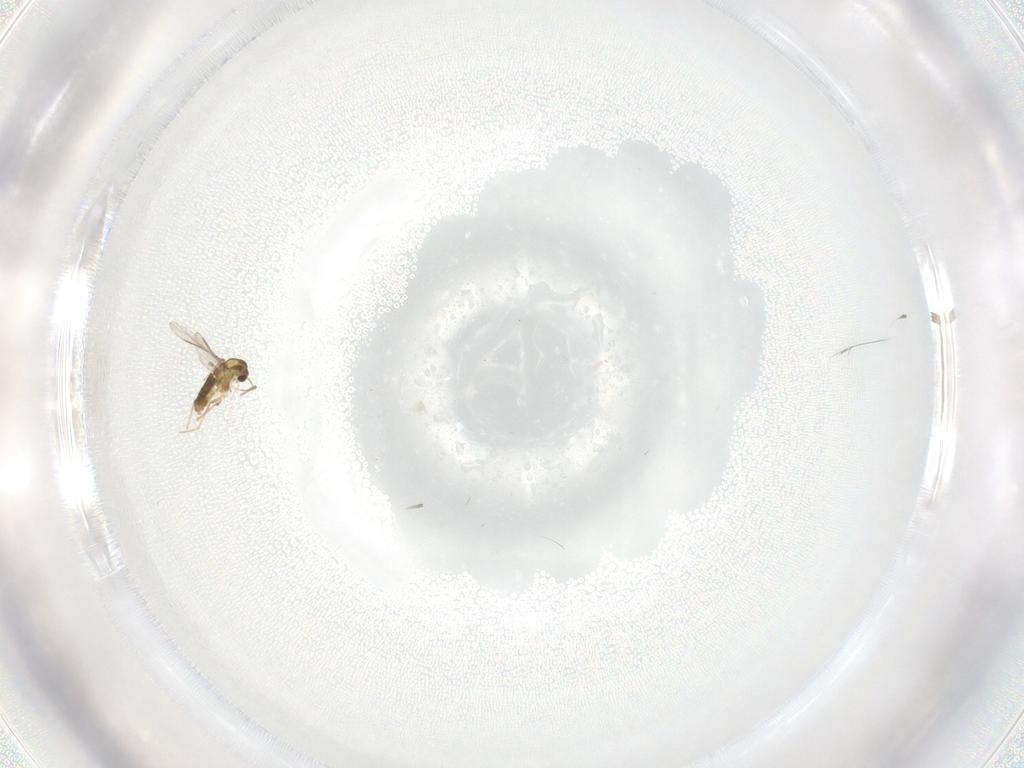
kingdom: Animalia
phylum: Arthropoda
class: Insecta
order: Diptera
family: Chironomidae
